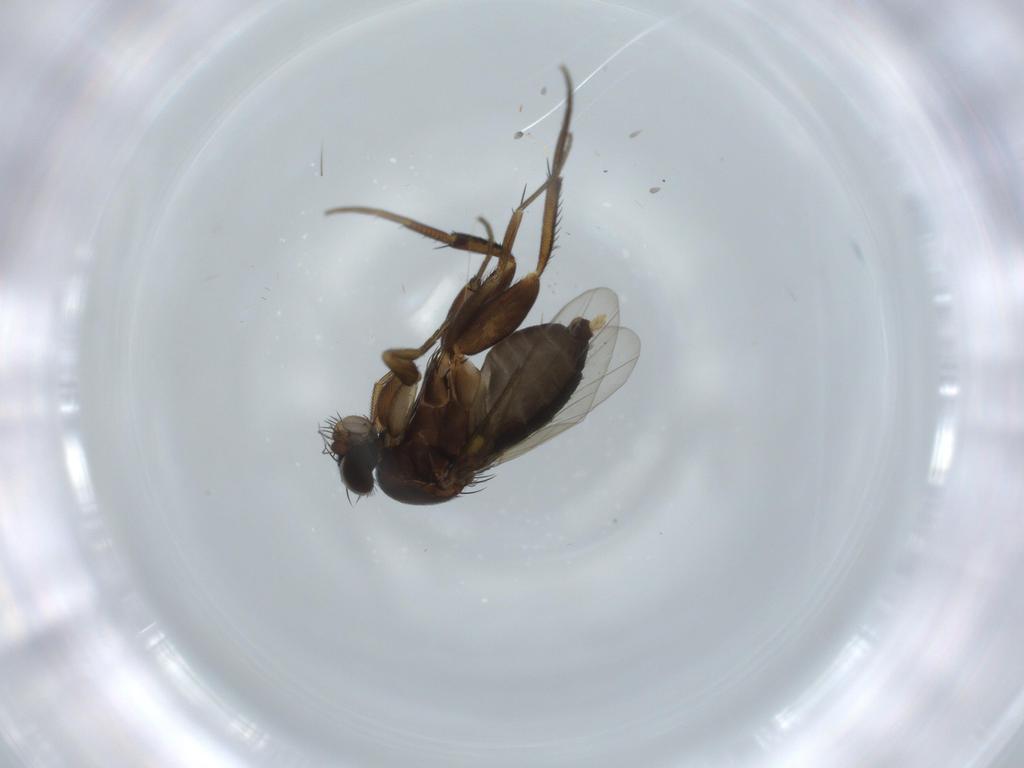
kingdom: Animalia
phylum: Arthropoda
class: Insecta
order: Diptera
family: Phoridae
